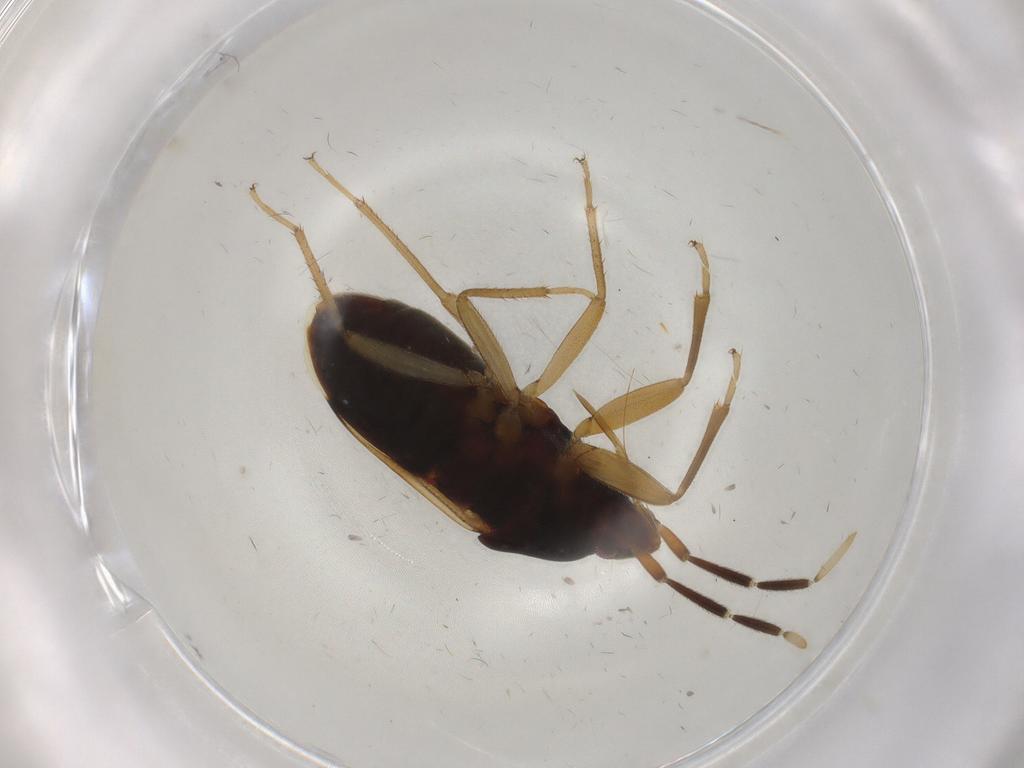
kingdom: Animalia
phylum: Arthropoda
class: Insecta
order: Hemiptera
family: Rhyparochromidae
